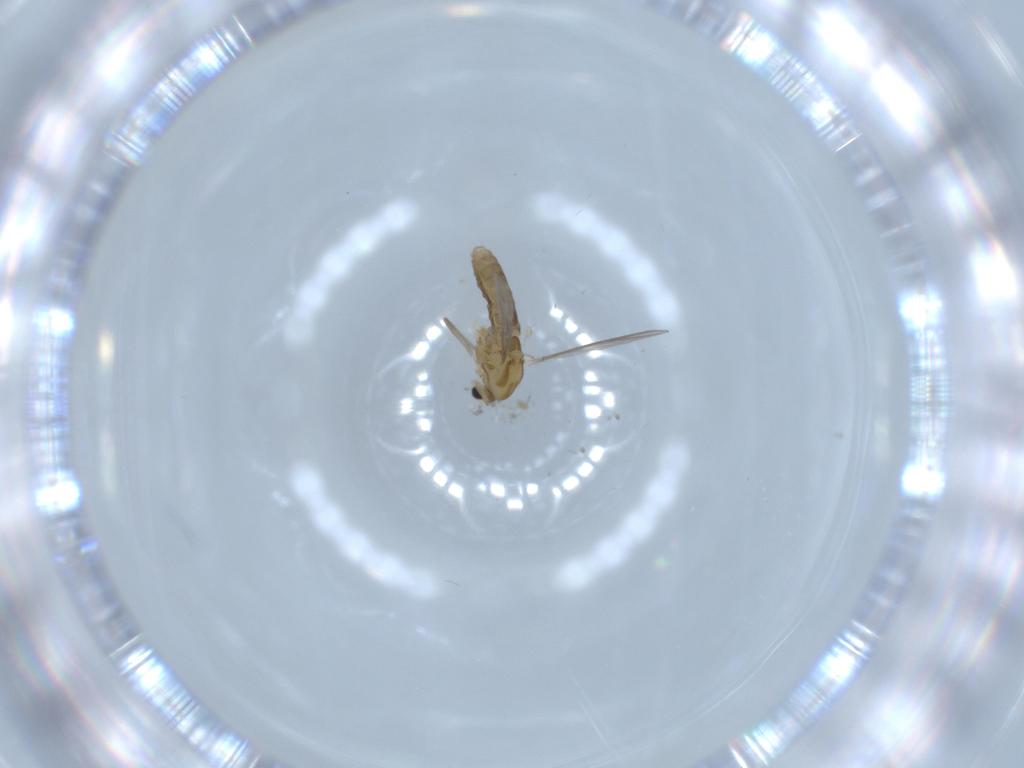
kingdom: Animalia
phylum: Arthropoda
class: Insecta
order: Diptera
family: Chironomidae
